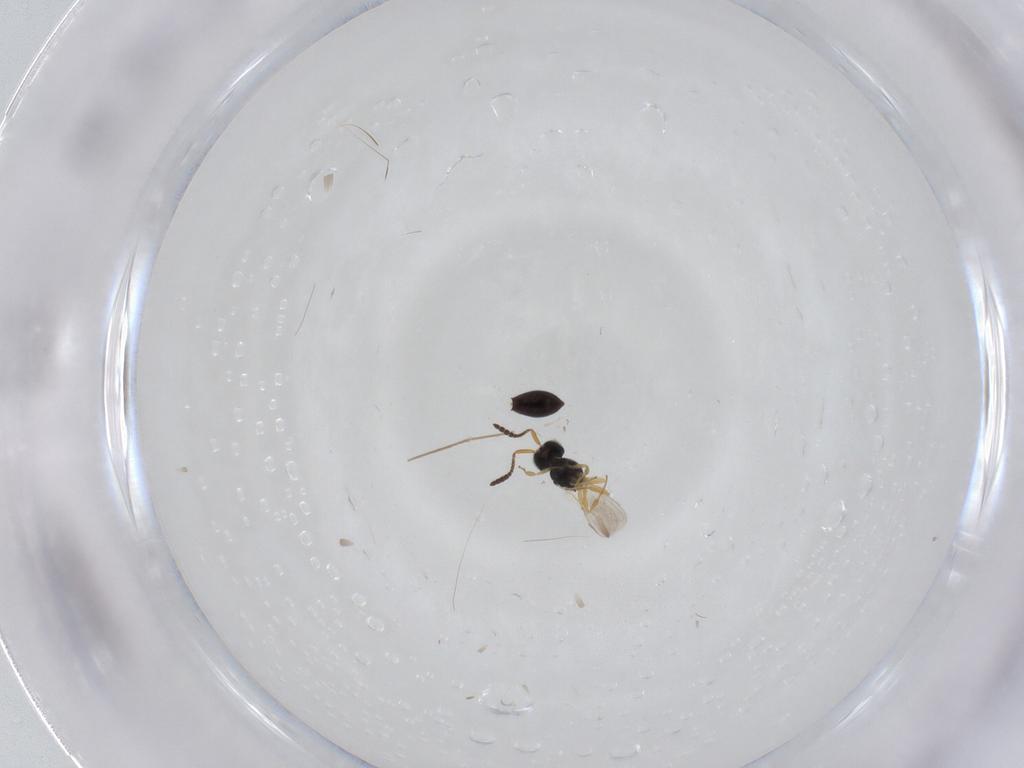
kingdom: Animalia
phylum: Arthropoda
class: Insecta
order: Hymenoptera
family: Scelionidae
